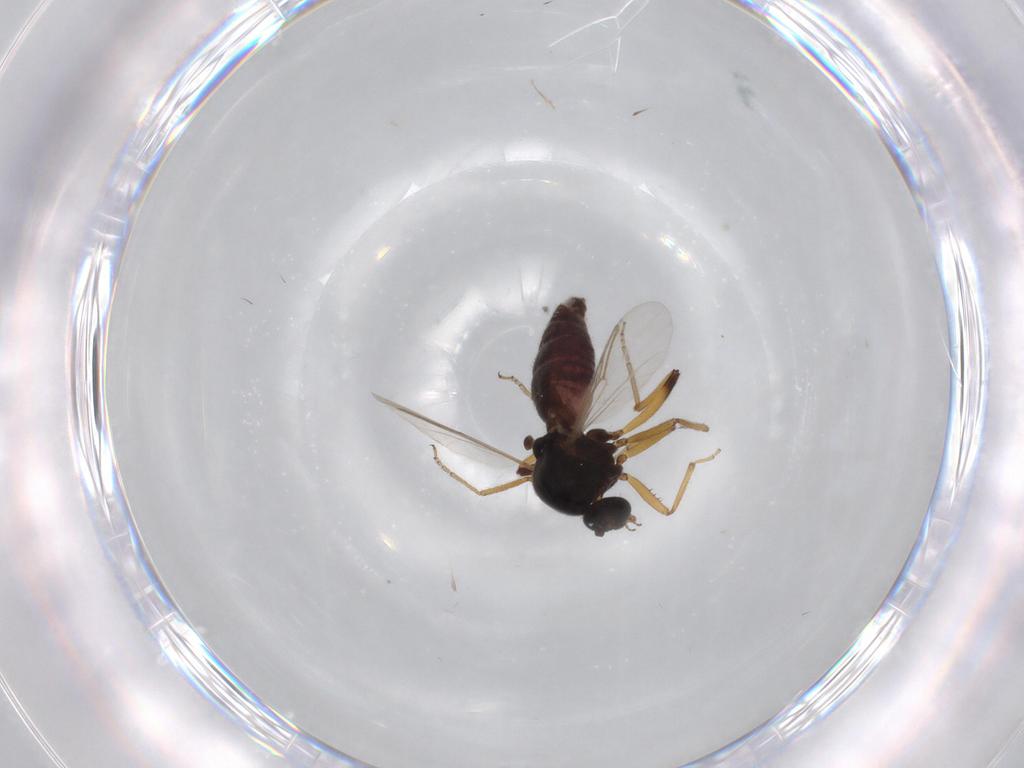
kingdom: Animalia
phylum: Arthropoda
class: Insecta
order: Diptera
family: Ceratopogonidae
